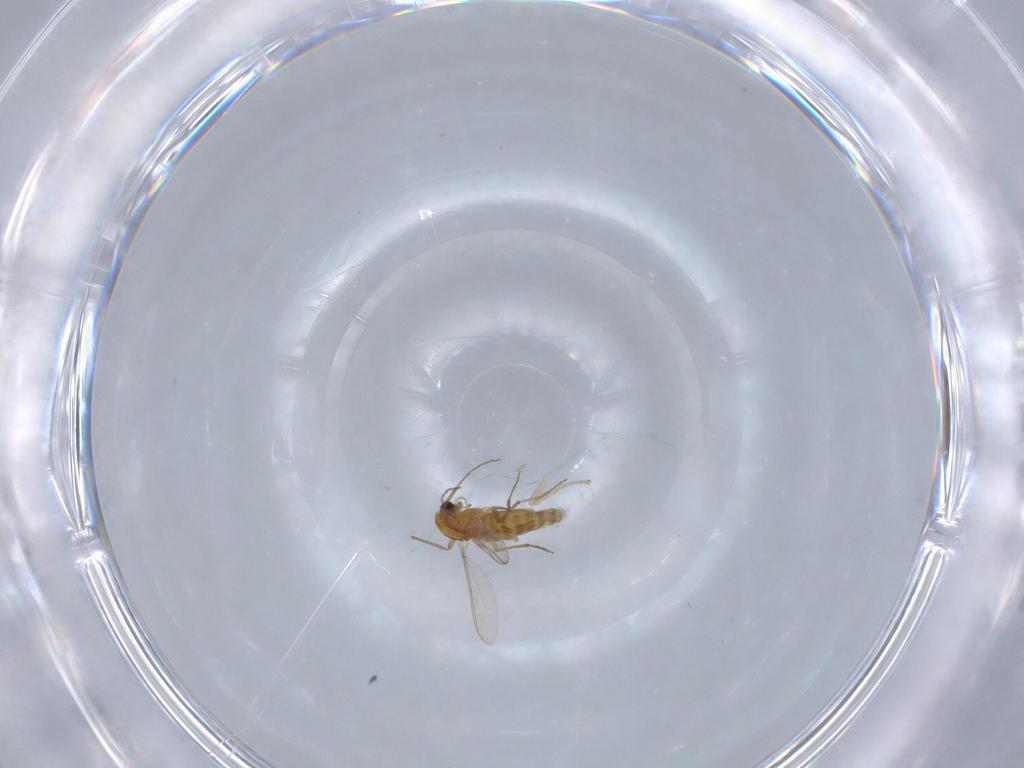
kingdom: Animalia
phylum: Arthropoda
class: Insecta
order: Diptera
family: Chironomidae
